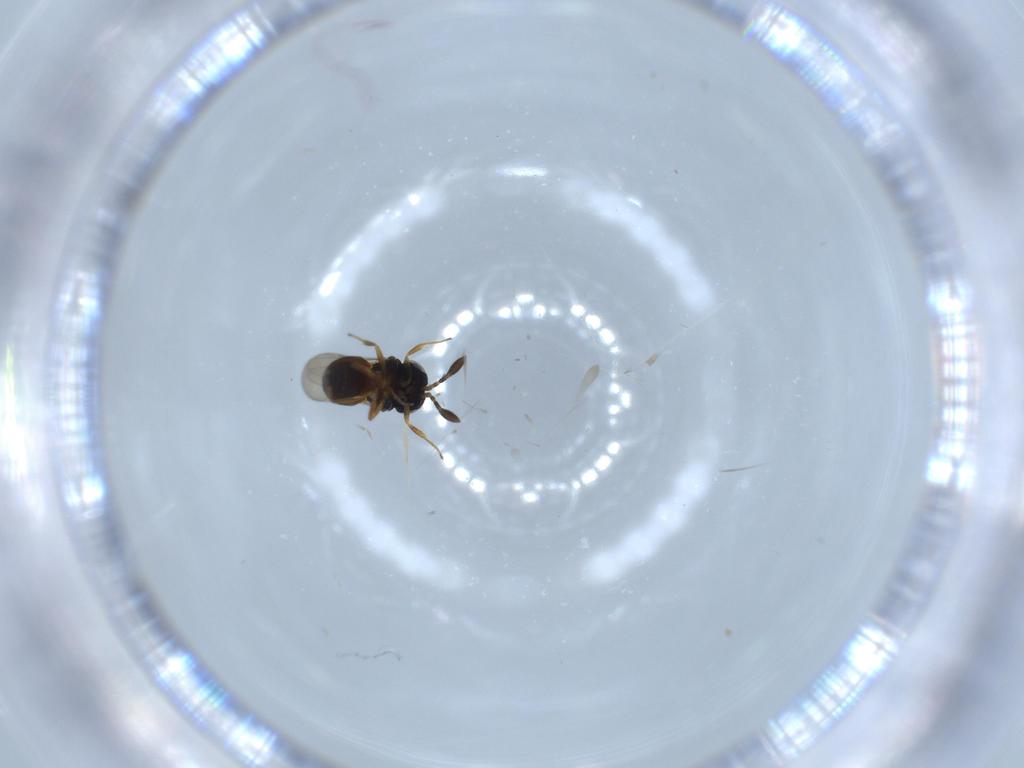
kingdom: Animalia
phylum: Arthropoda
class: Insecta
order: Coleoptera
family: Curculionidae
